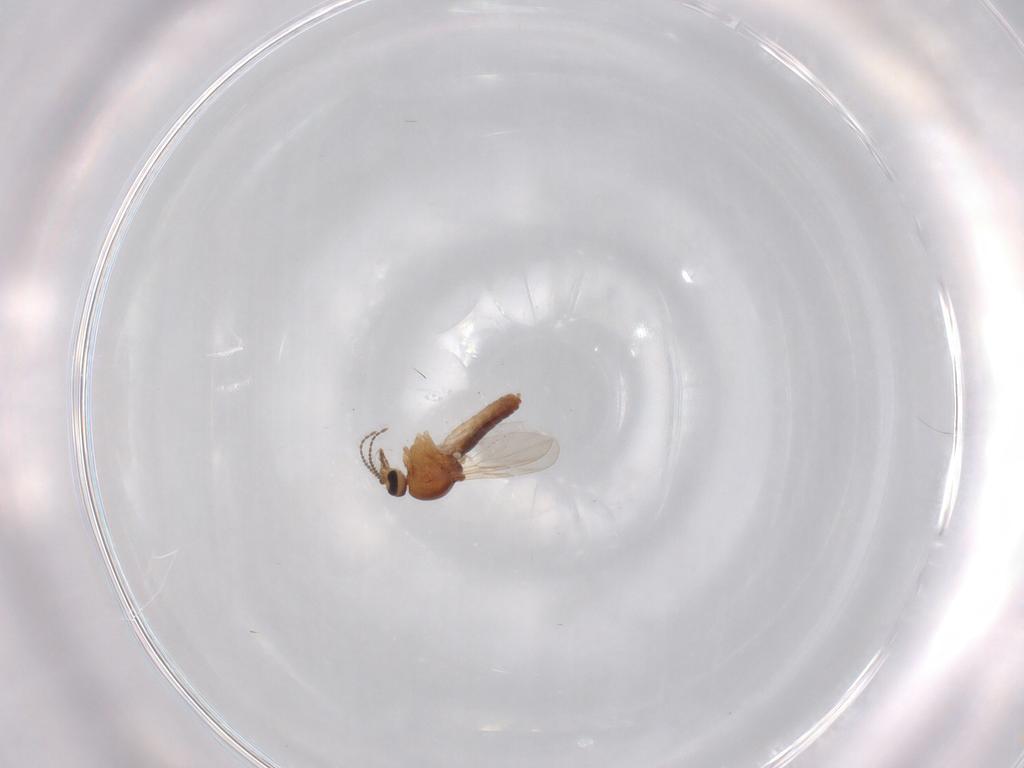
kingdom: Animalia
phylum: Arthropoda
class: Insecta
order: Diptera
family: Ceratopogonidae
